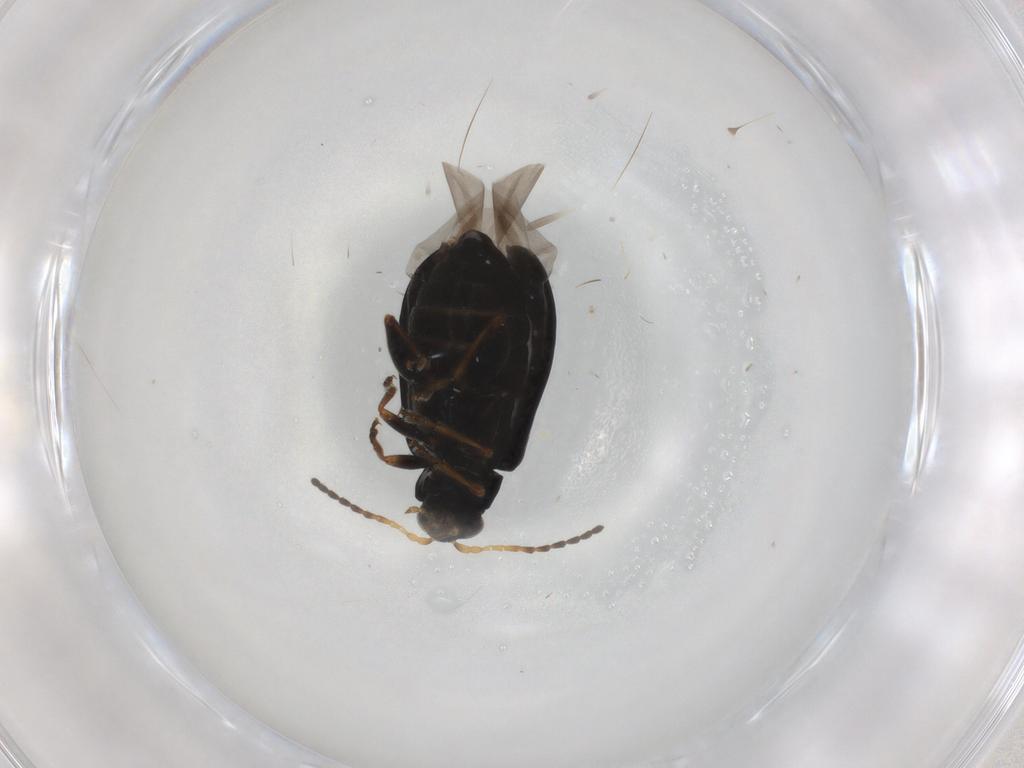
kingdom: Animalia
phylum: Arthropoda
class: Insecta
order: Coleoptera
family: Chrysomelidae
